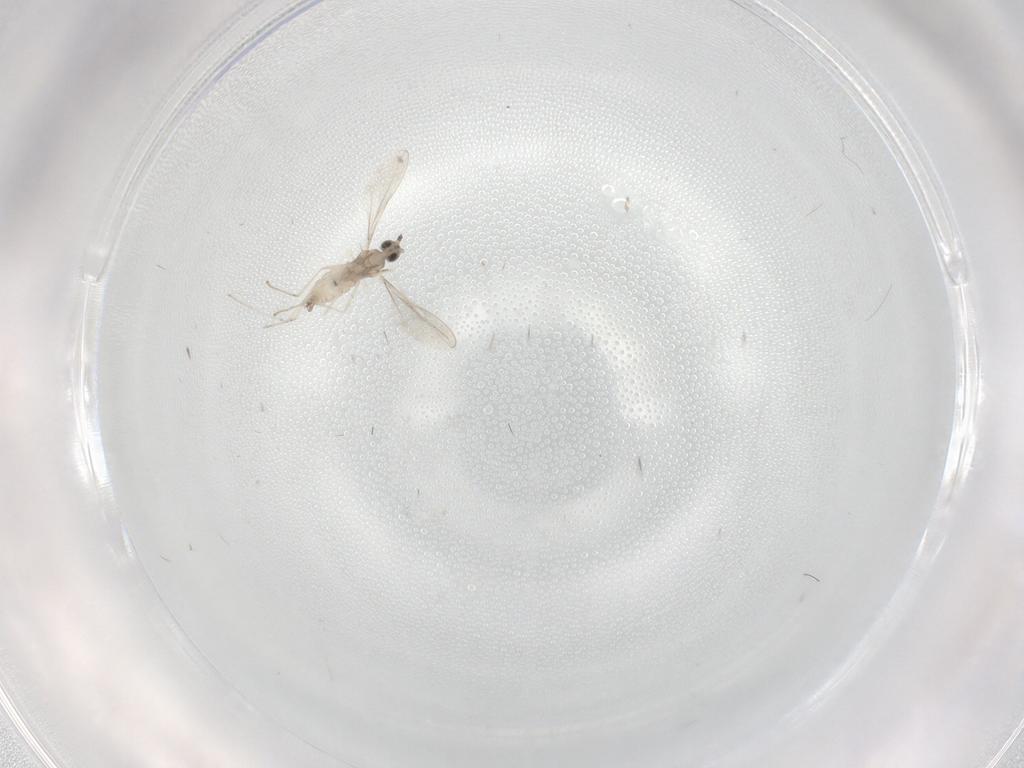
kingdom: Animalia
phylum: Arthropoda
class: Insecta
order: Diptera
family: Cecidomyiidae
